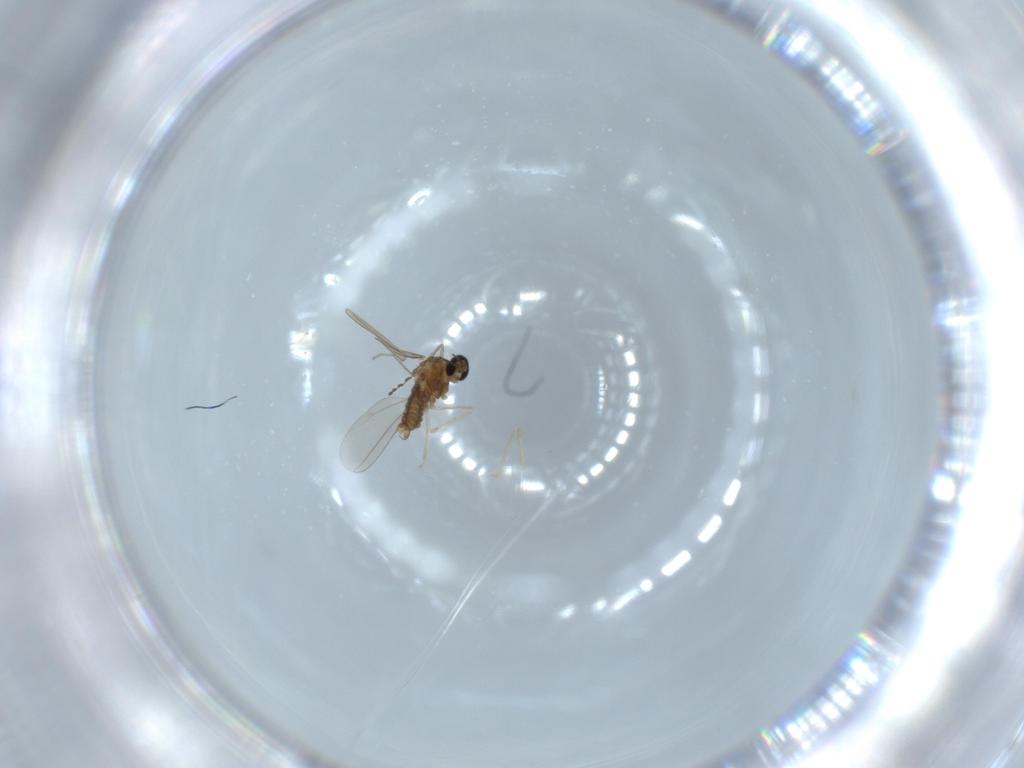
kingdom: Animalia
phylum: Arthropoda
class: Insecta
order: Diptera
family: Cecidomyiidae
